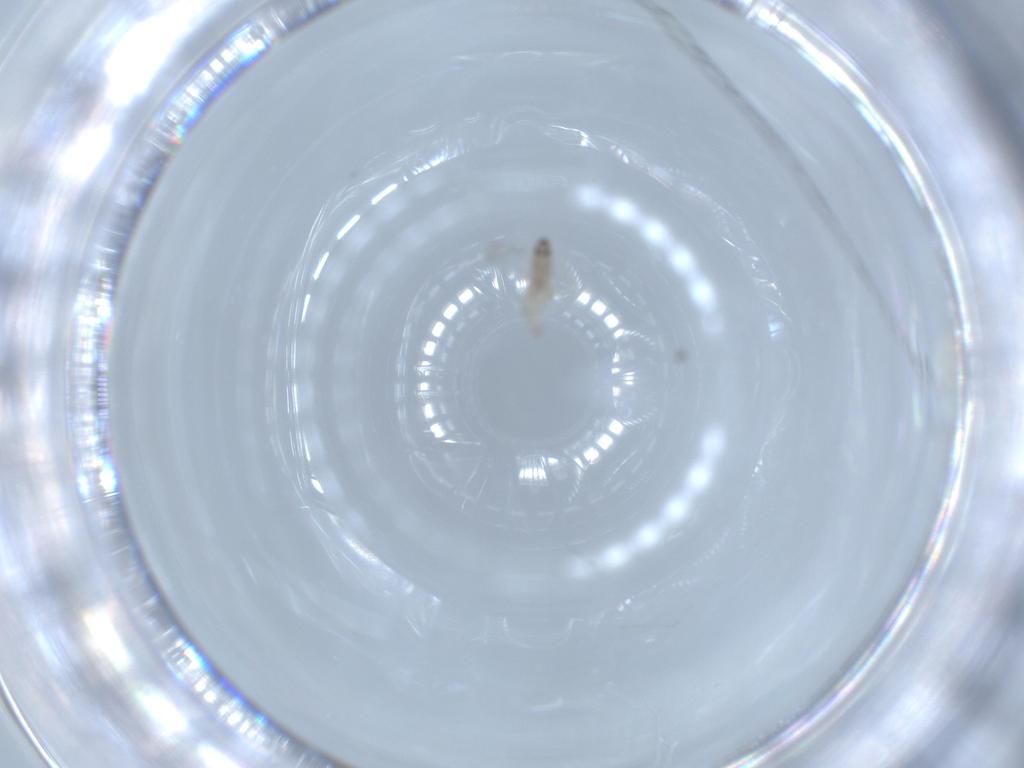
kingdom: Animalia
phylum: Arthropoda
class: Insecta
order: Diptera
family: Cecidomyiidae
